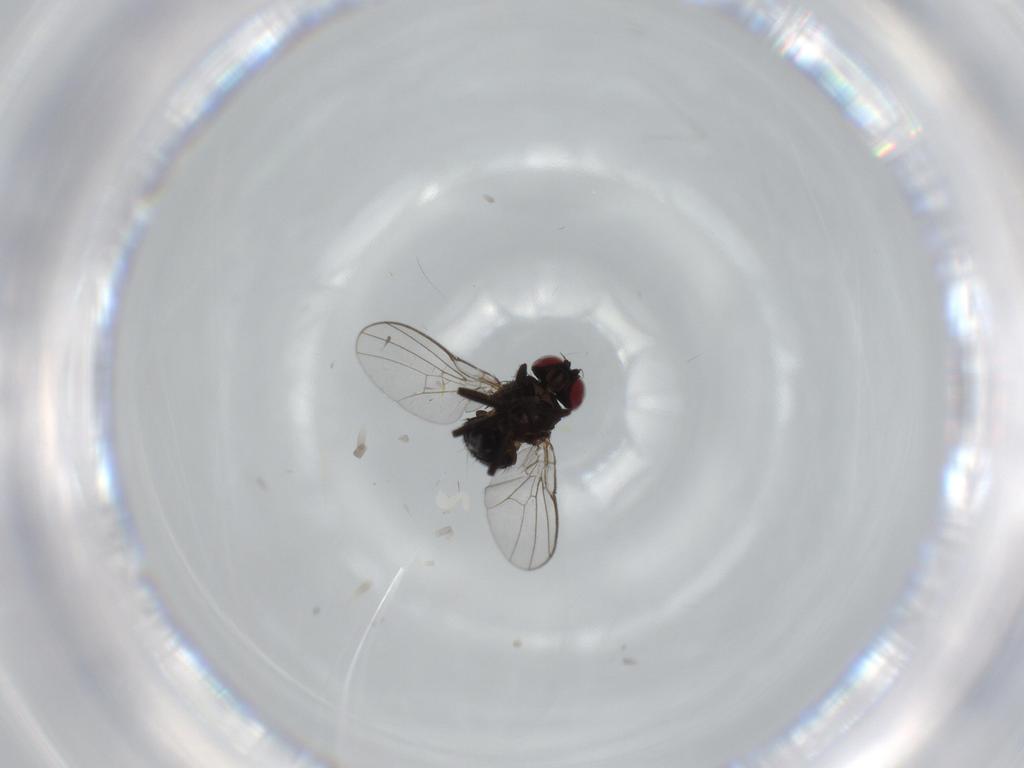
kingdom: Animalia
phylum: Arthropoda
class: Insecta
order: Diptera
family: Agromyzidae
